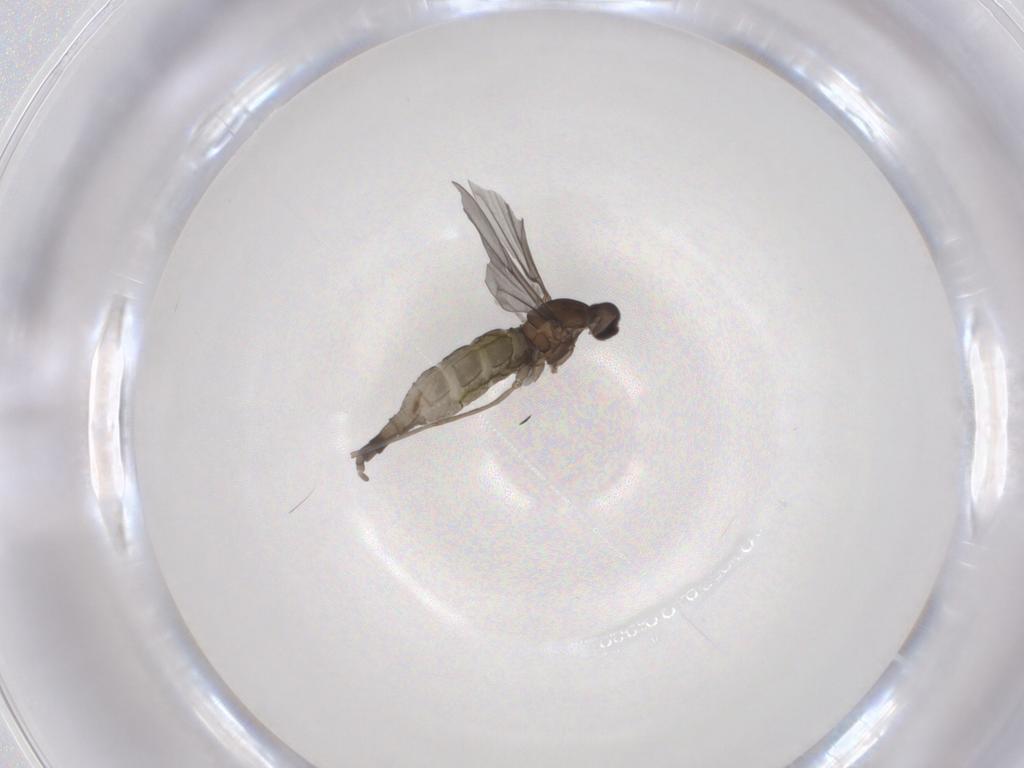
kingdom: Animalia
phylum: Arthropoda
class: Insecta
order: Diptera
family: Cecidomyiidae
